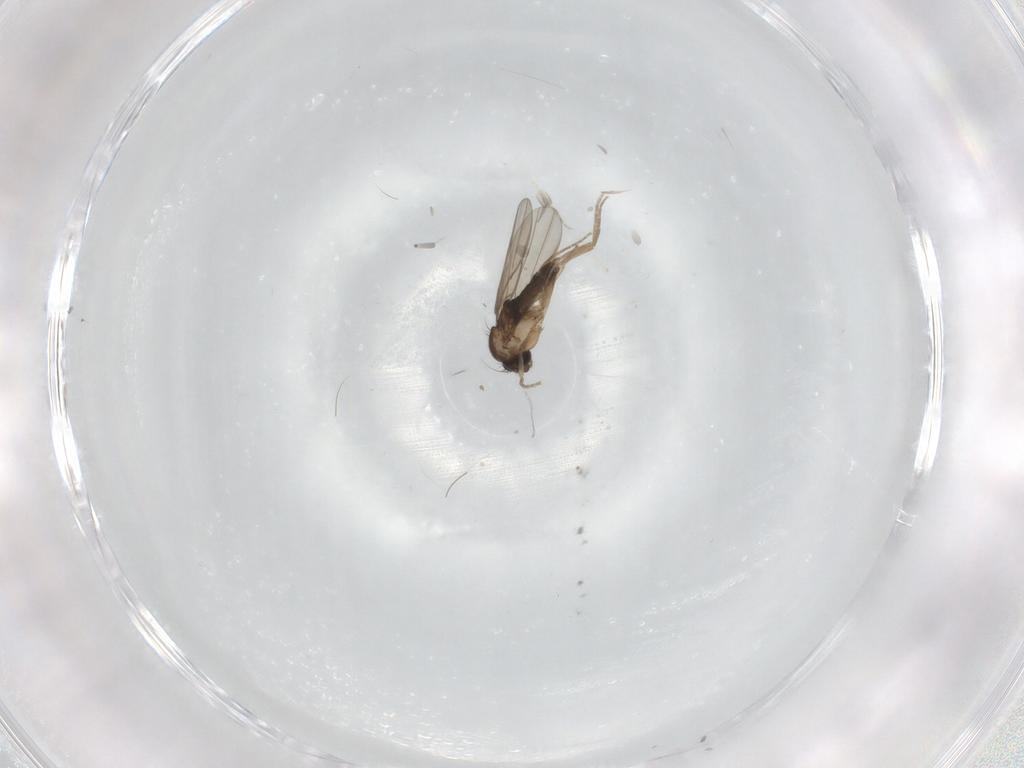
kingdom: Animalia
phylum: Arthropoda
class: Insecta
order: Diptera
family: Phoridae
